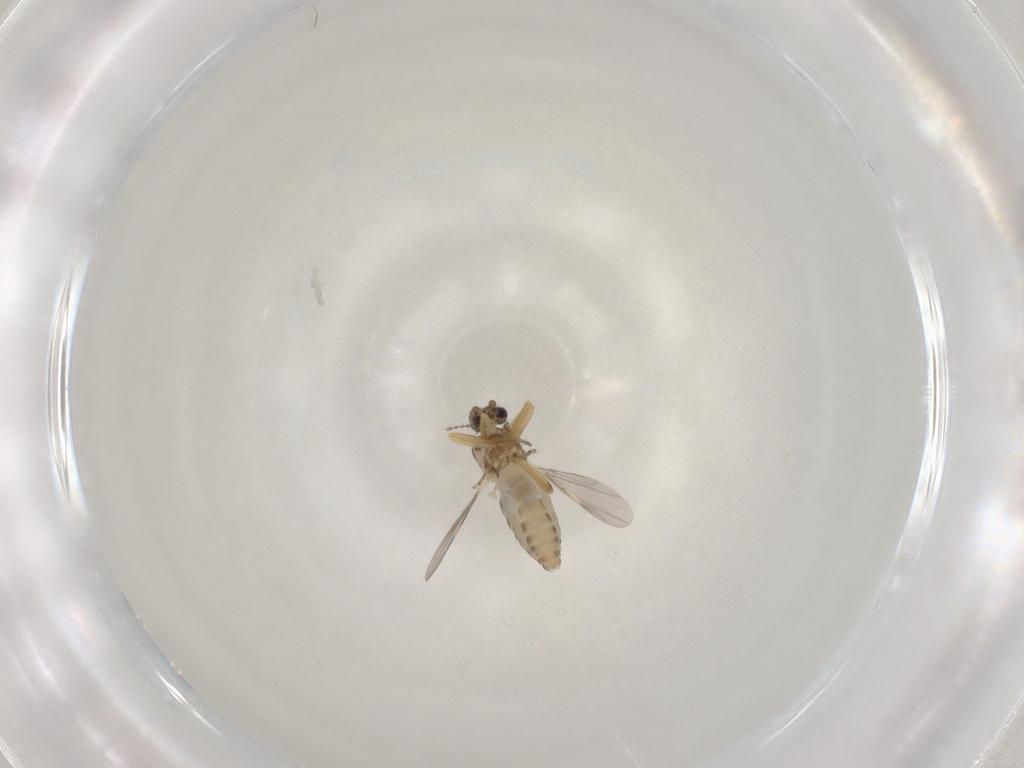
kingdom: Animalia
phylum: Arthropoda
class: Insecta
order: Diptera
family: Ceratopogonidae
